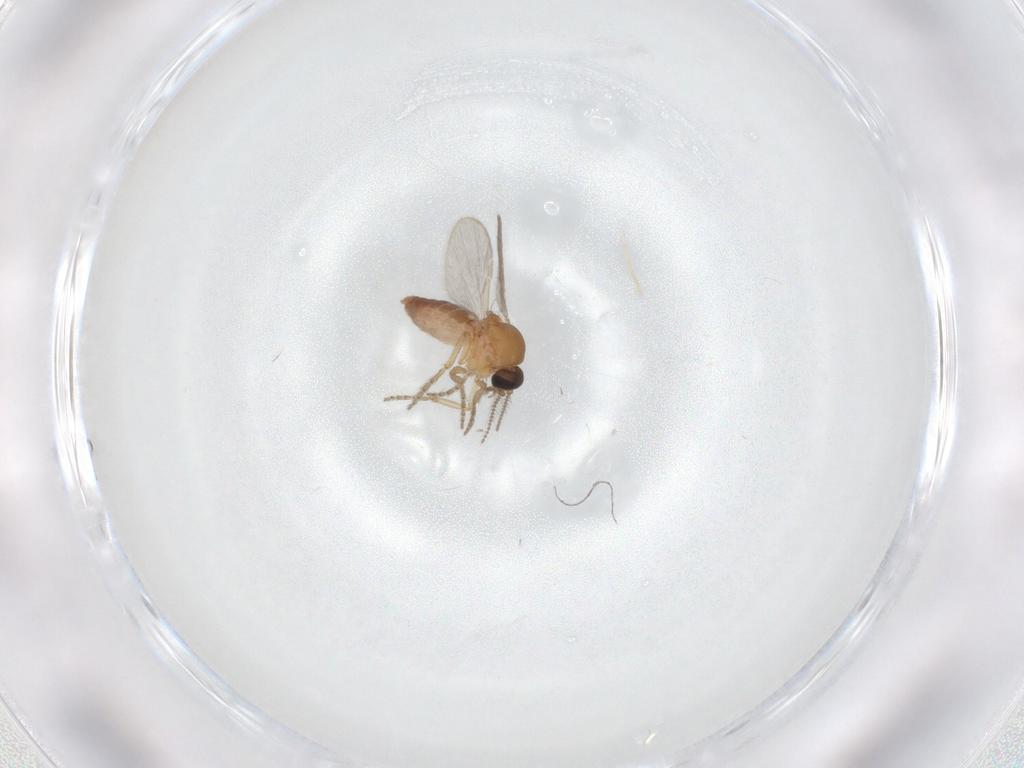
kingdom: Animalia
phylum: Arthropoda
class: Insecta
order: Diptera
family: Ceratopogonidae
